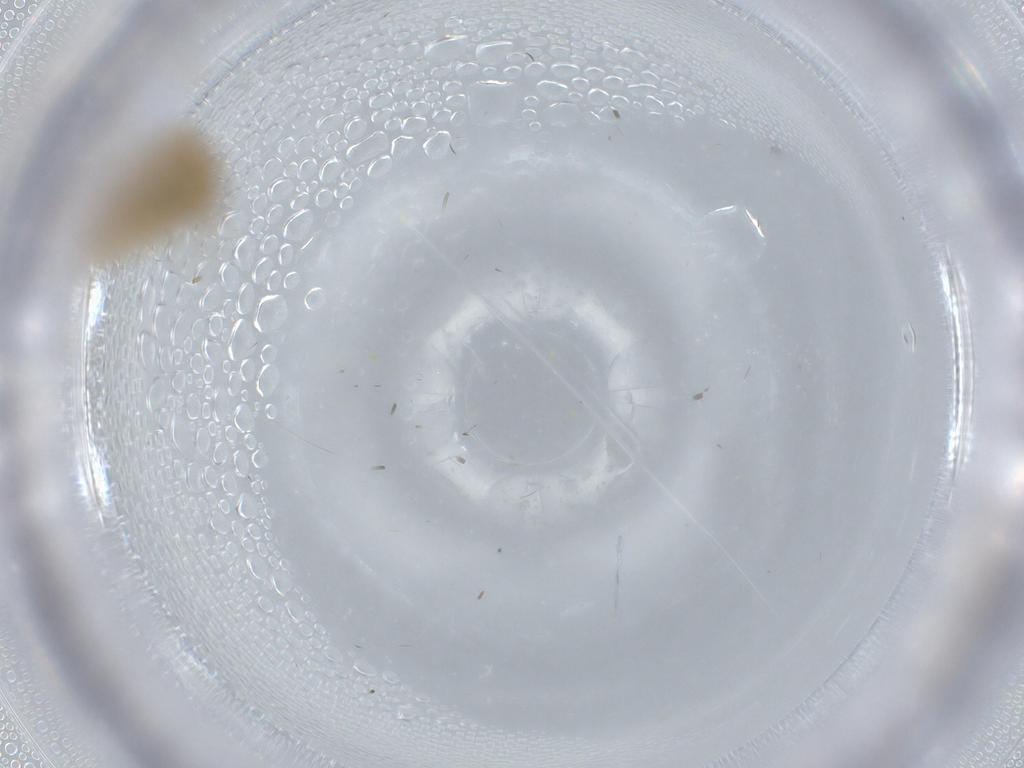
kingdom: Animalia
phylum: Arthropoda
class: Insecta
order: Psocodea
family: Caeciliusidae
